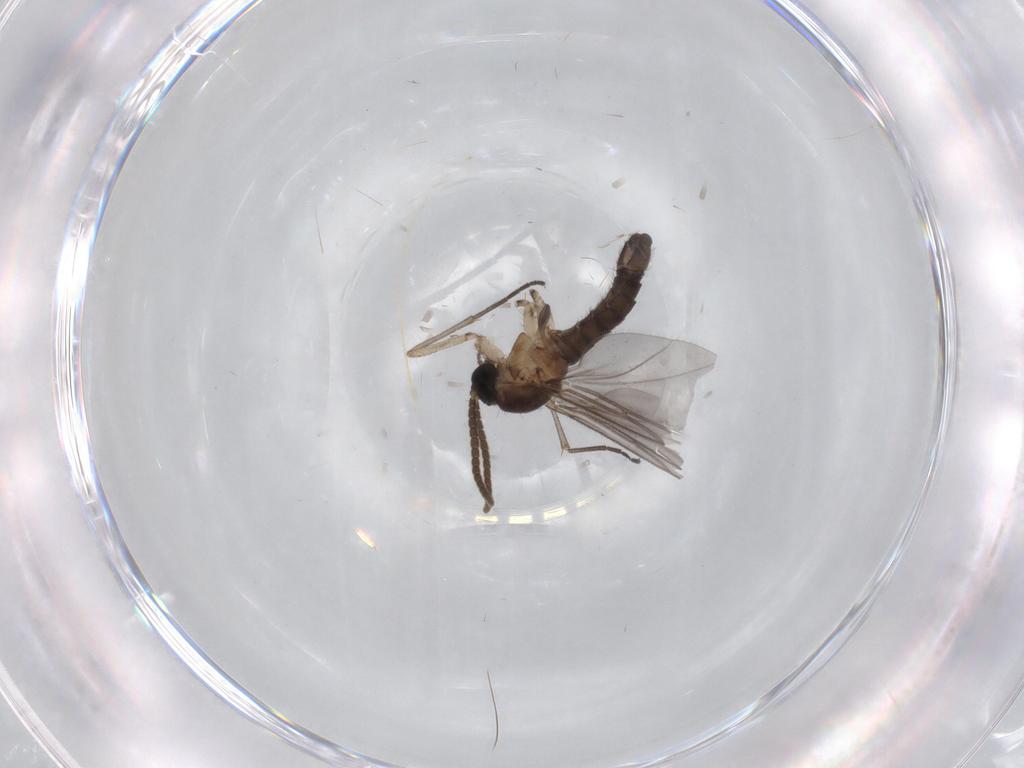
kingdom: Animalia
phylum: Arthropoda
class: Insecta
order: Diptera
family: Chironomidae
